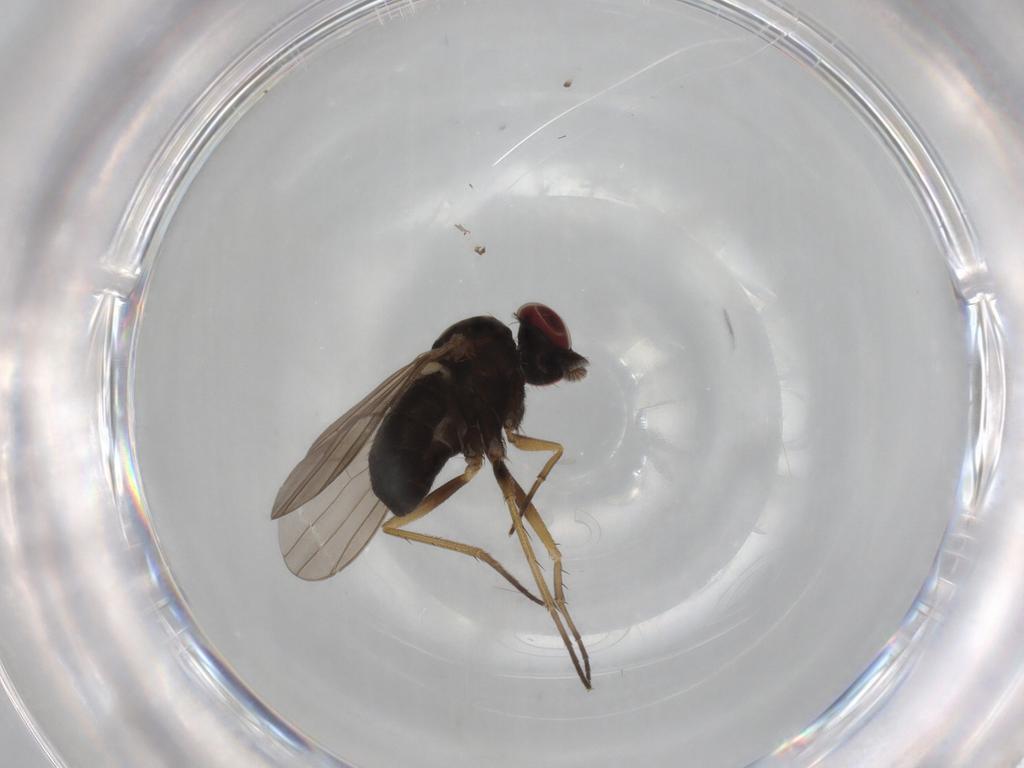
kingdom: Animalia
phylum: Arthropoda
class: Insecta
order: Diptera
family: Cecidomyiidae
